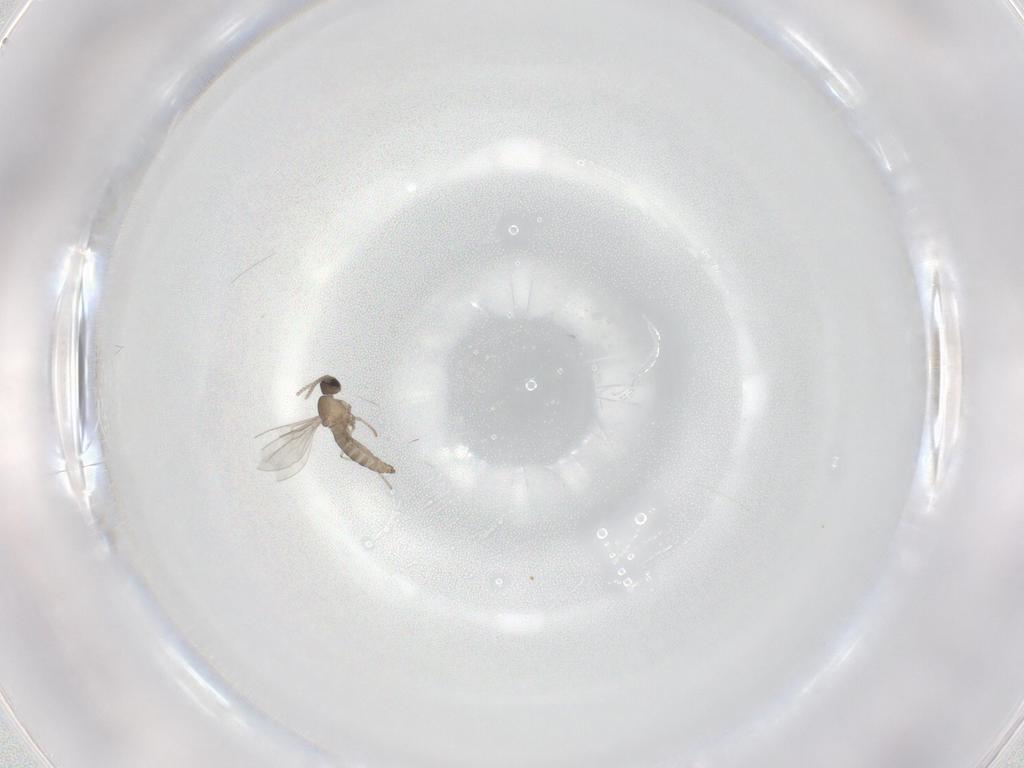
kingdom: Animalia
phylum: Arthropoda
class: Insecta
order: Diptera
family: Cecidomyiidae
